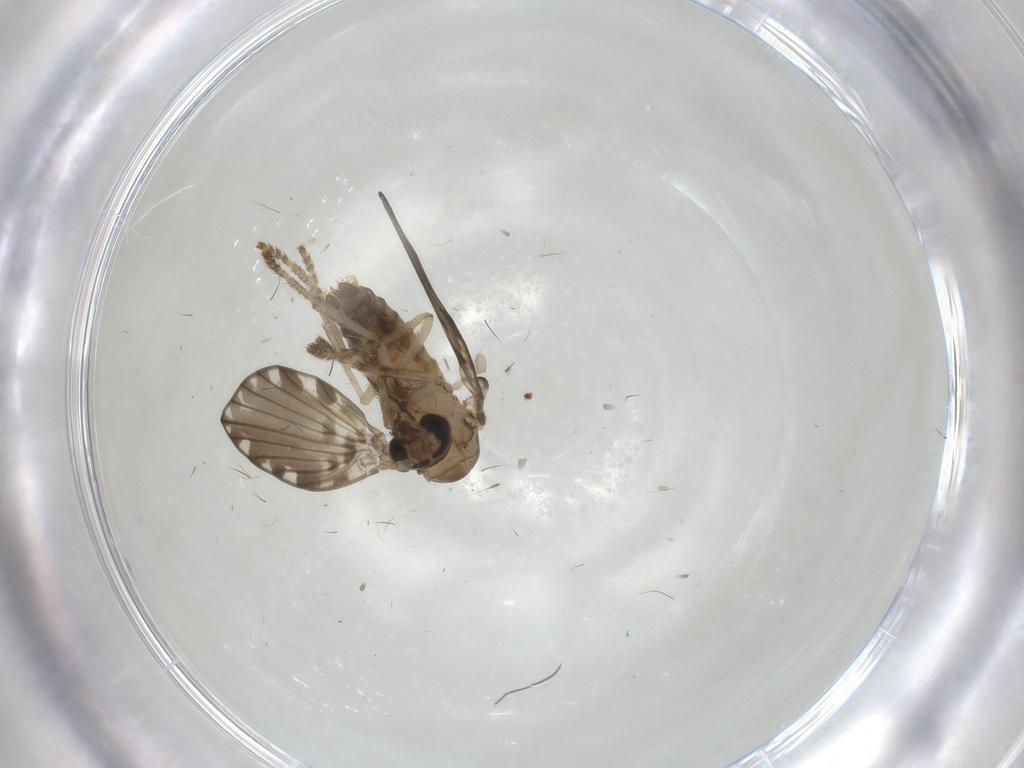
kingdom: Animalia
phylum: Arthropoda
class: Insecta
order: Diptera
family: Psychodidae
